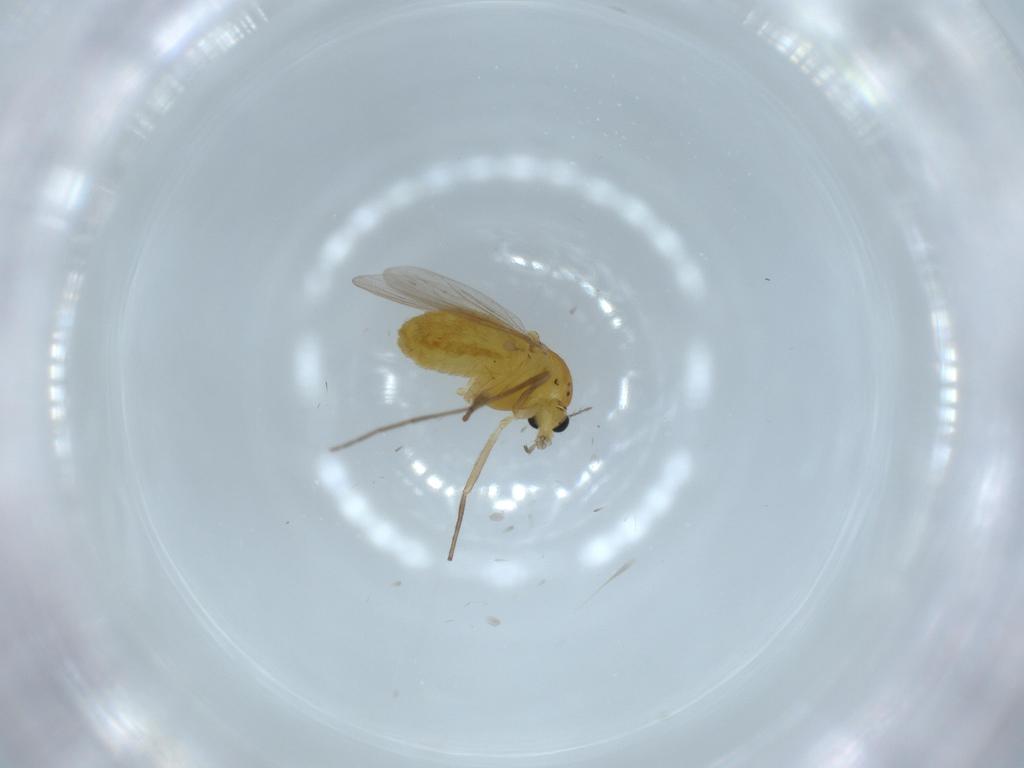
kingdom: Animalia
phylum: Arthropoda
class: Insecta
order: Diptera
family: Chironomidae
